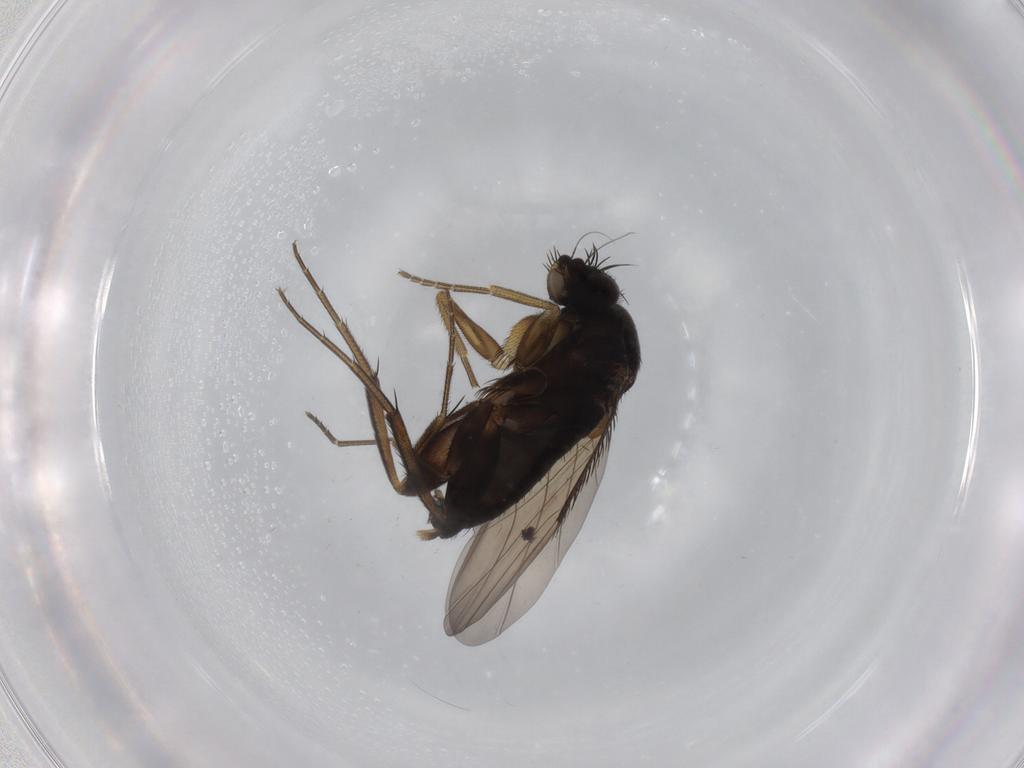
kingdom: Animalia
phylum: Arthropoda
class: Insecta
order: Diptera
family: Phoridae
